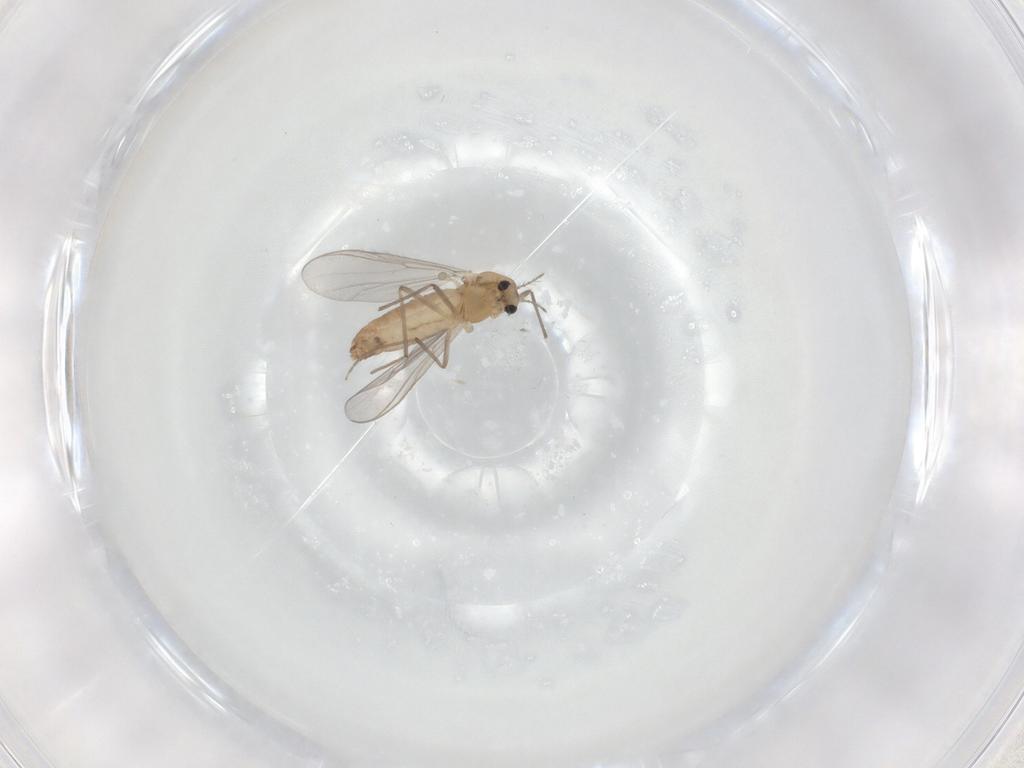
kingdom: Animalia
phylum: Arthropoda
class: Insecta
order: Diptera
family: Chironomidae
